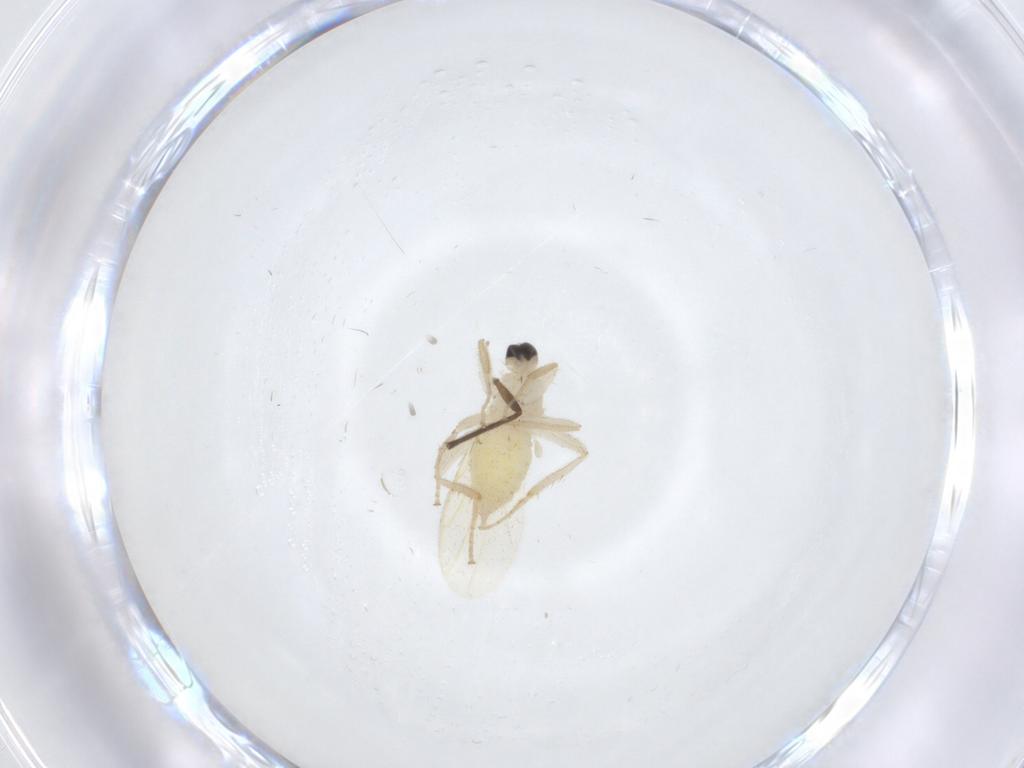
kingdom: Animalia
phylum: Arthropoda
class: Insecta
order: Diptera
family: Hybotidae
